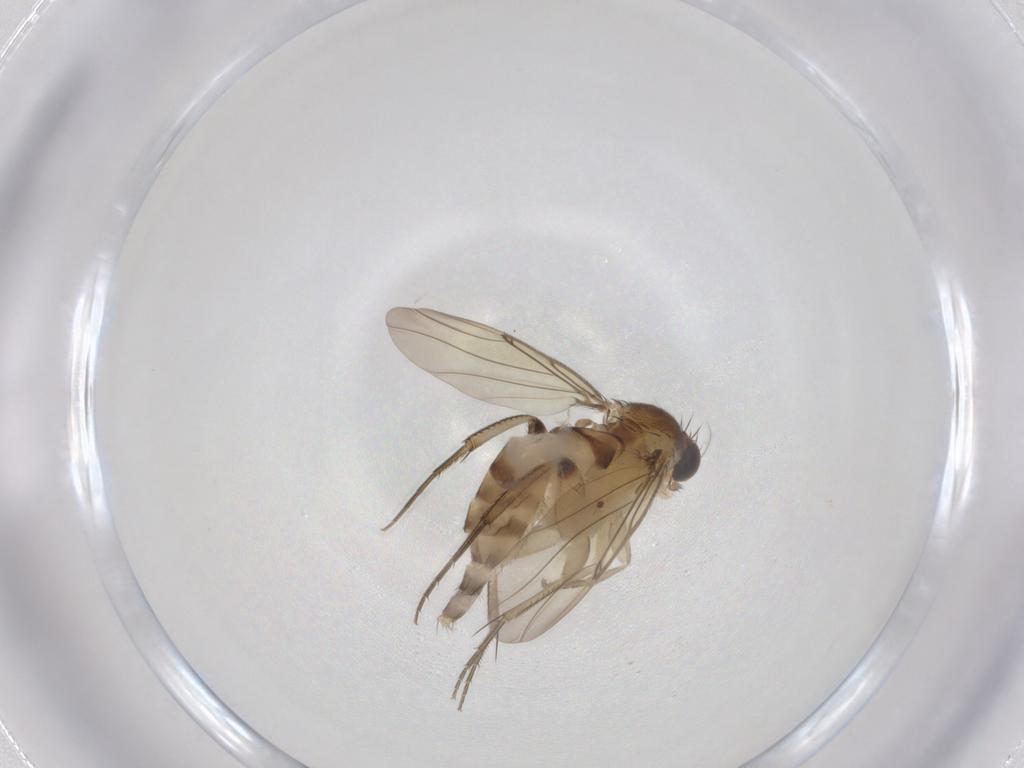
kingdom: Animalia
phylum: Arthropoda
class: Insecta
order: Diptera
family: Phoridae
